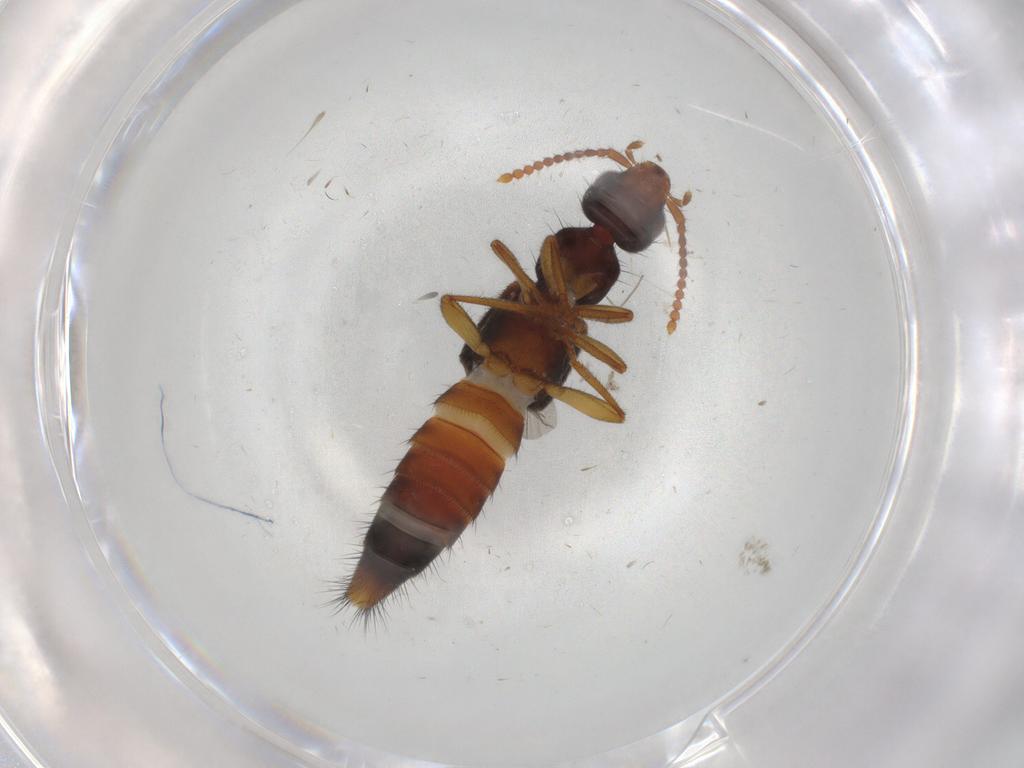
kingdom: Animalia
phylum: Arthropoda
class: Insecta
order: Coleoptera
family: Staphylinidae
